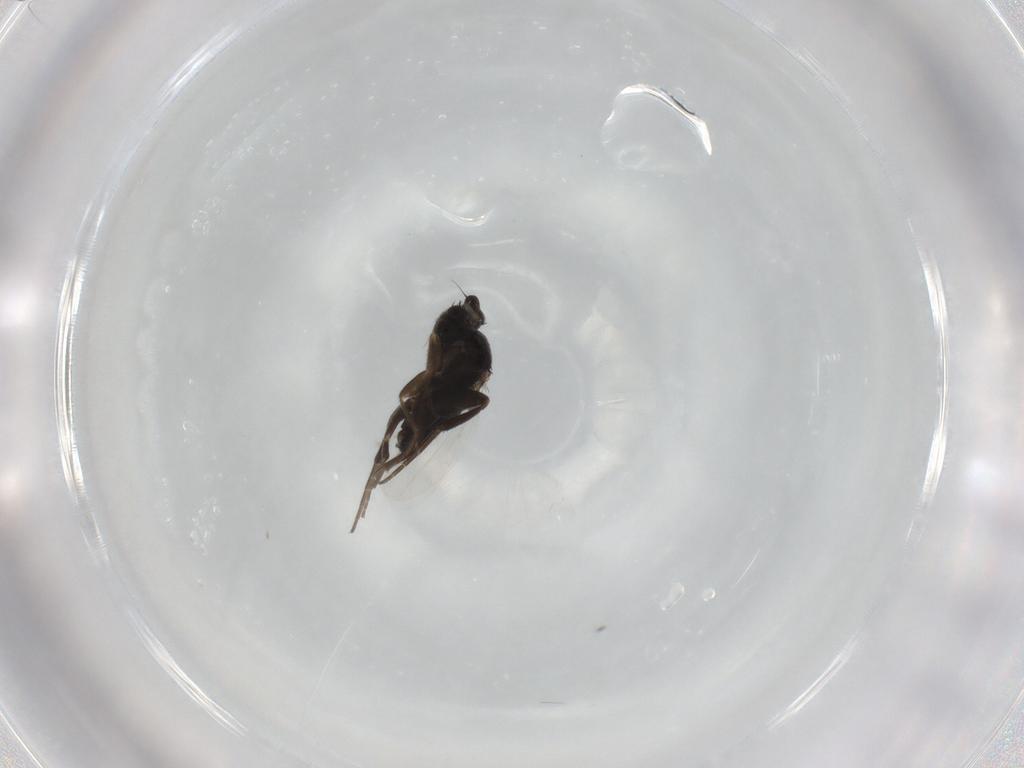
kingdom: Animalia
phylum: Arthropoda
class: Insecta
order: Diptera
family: Phoridae
